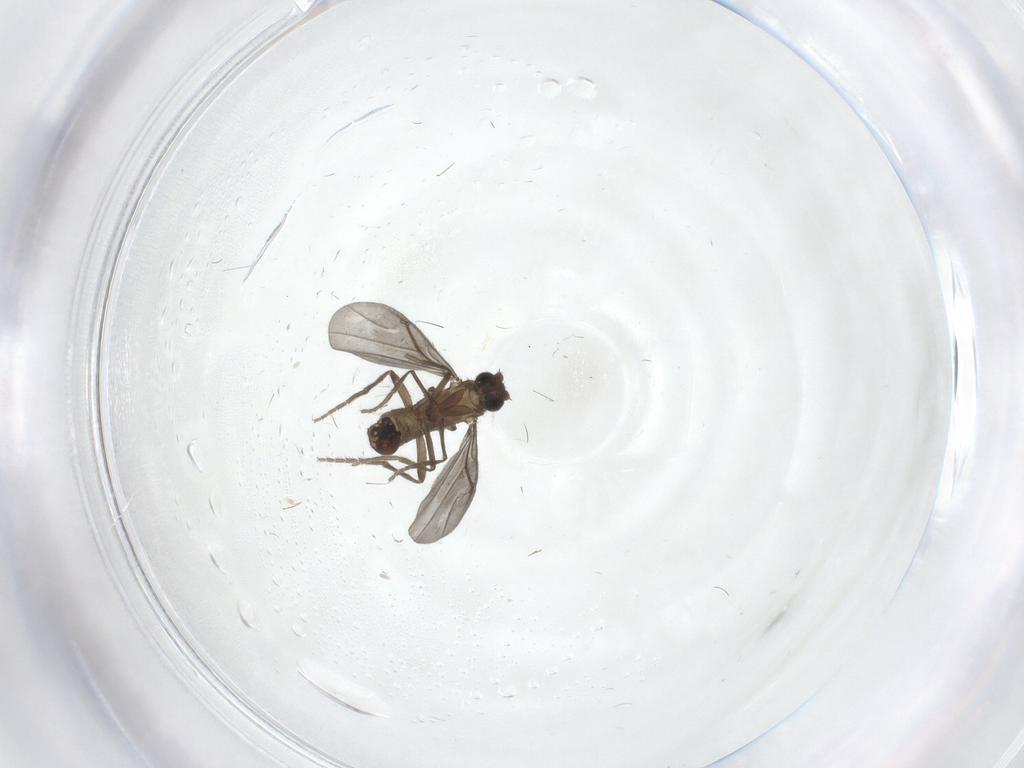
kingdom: Animalia
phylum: Arthropoda
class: Insecta
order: Diptera
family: Phoridae
